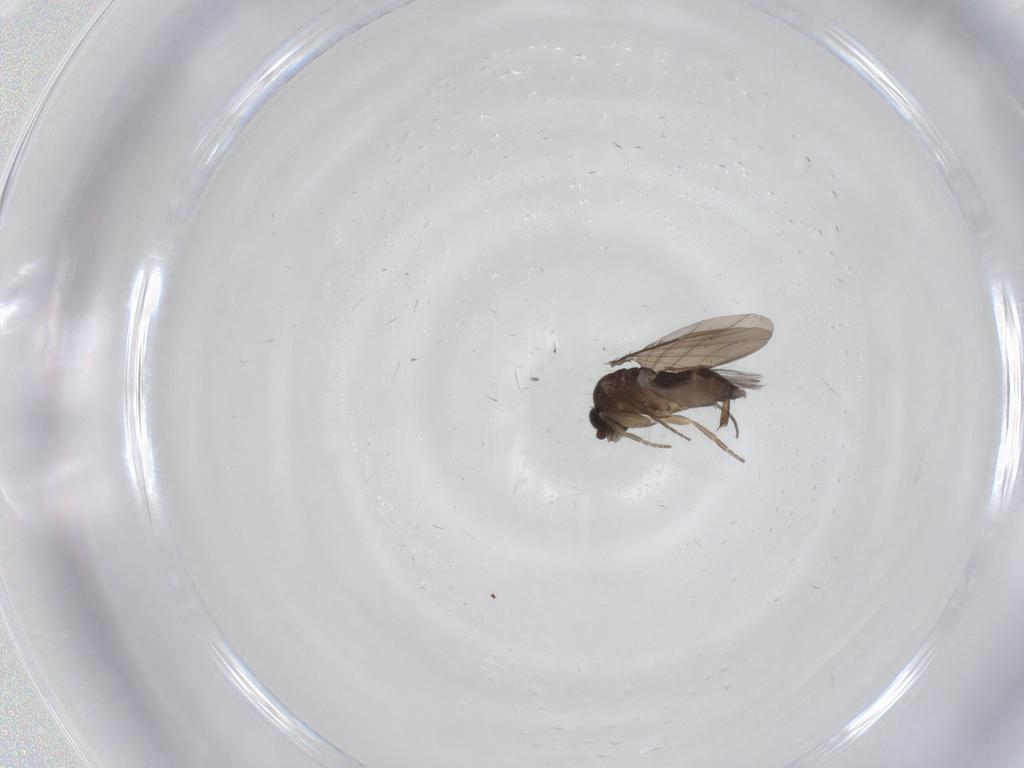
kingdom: Animalia
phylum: Arthropoda
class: Insecta
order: Diptera
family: Phoridae
